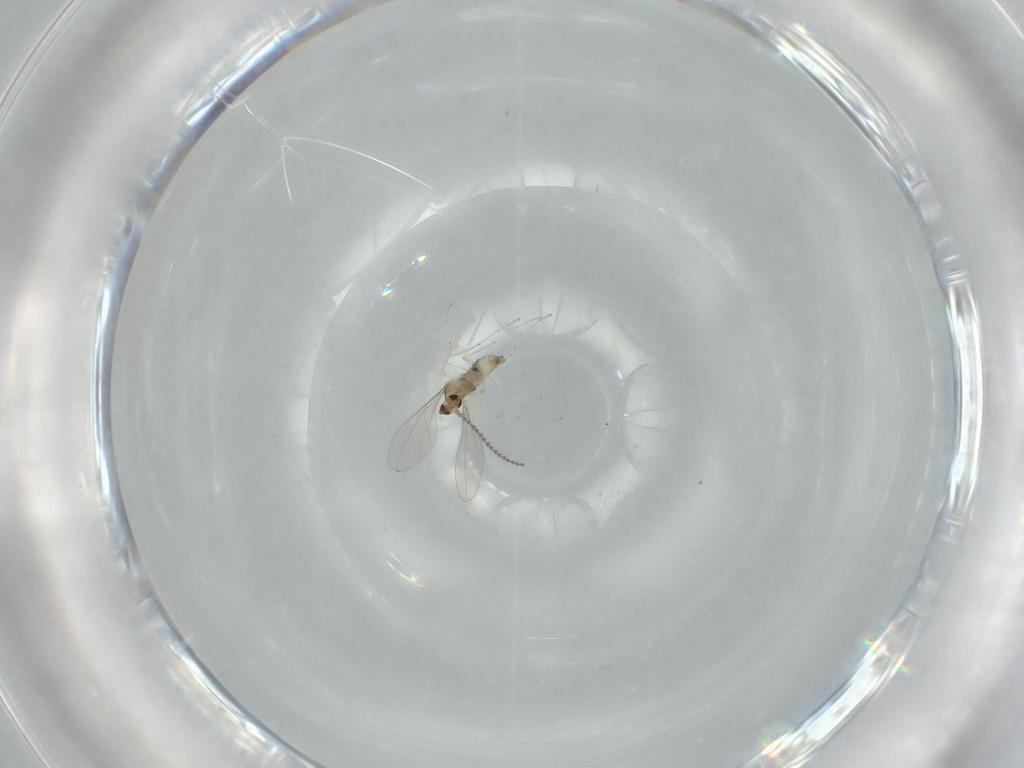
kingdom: Animalia
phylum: Arthropoda
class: Insecta
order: Diptera
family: Cecidomyiidae
